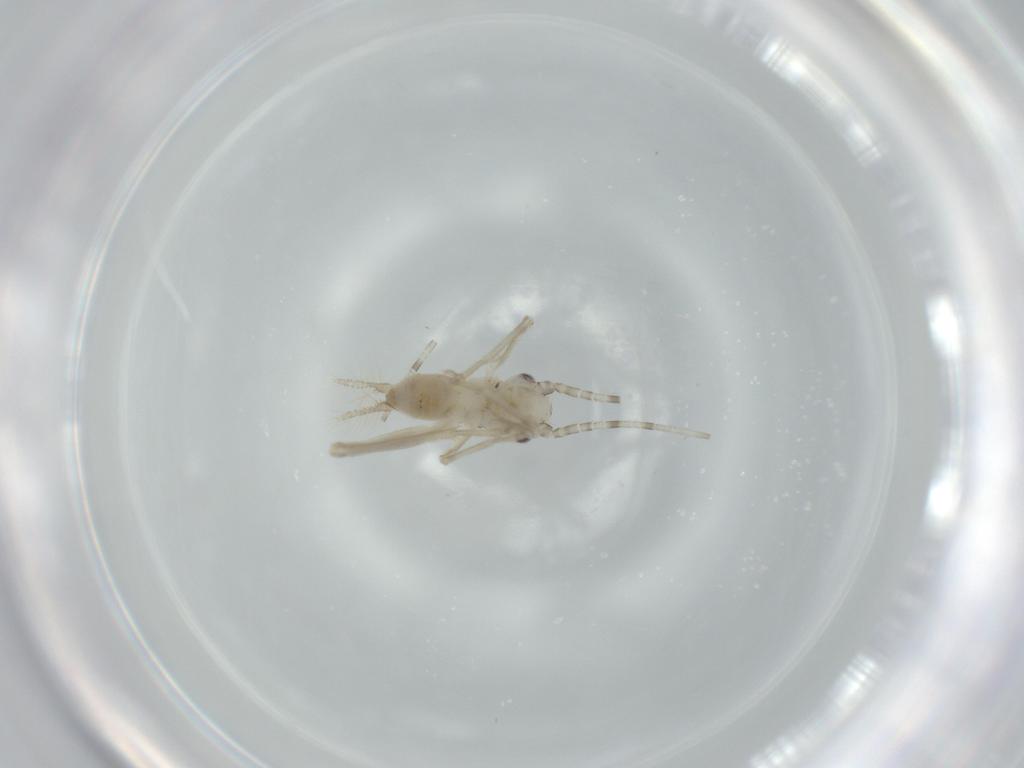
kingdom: Animalia
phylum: Arthropoda
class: Insecta
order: Orthoptera
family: Trigonidiidae
